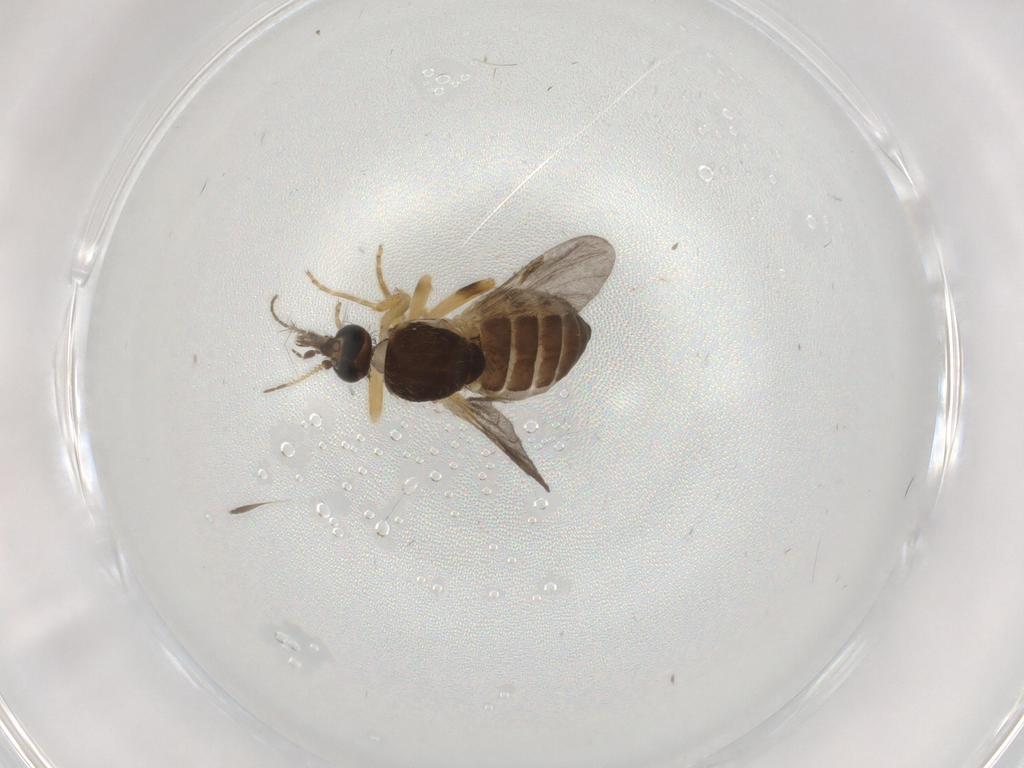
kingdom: Animalia
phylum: Arthropoda
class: Insecta
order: Diptera
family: Ceratopogonidae
